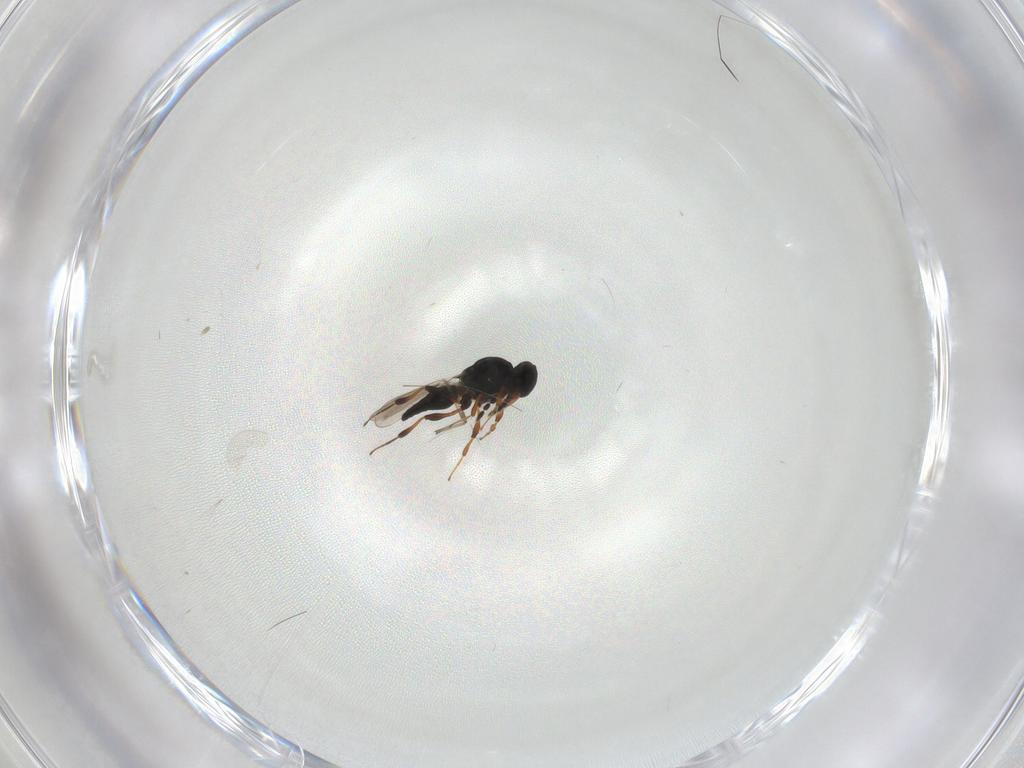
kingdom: Animalia
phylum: Arthropoda
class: Insecta
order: Hymenoptera
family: Platygastridae
